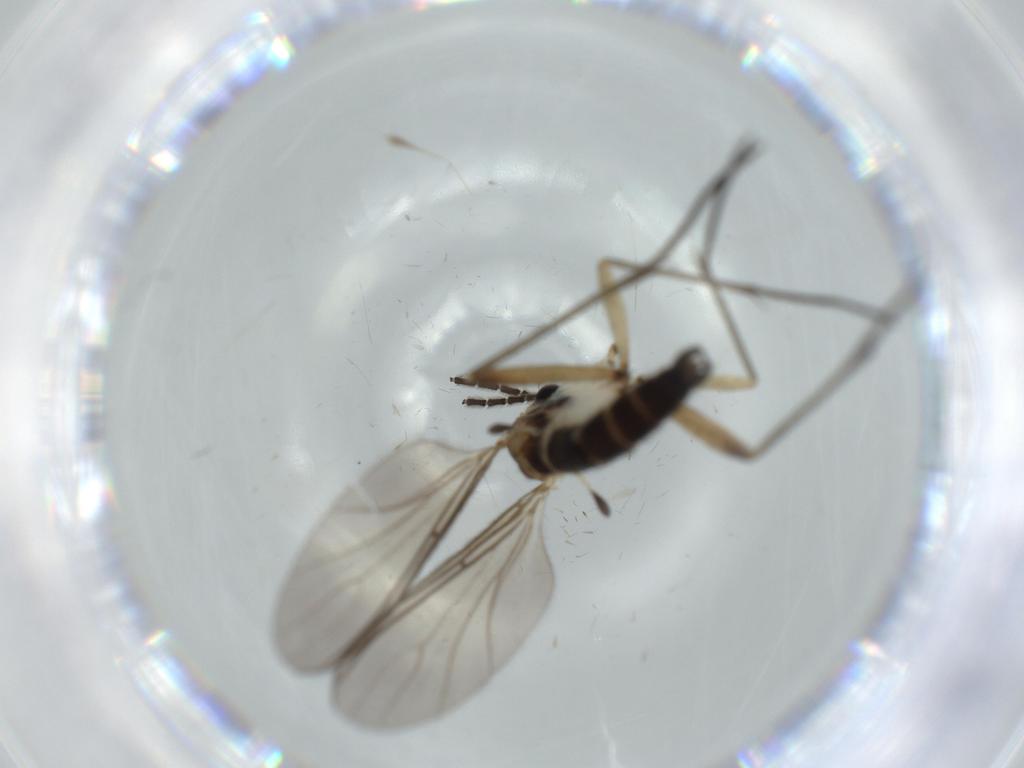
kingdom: Animalia
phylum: Arthropoda
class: Insecta
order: Diptera
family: Sciaridae
